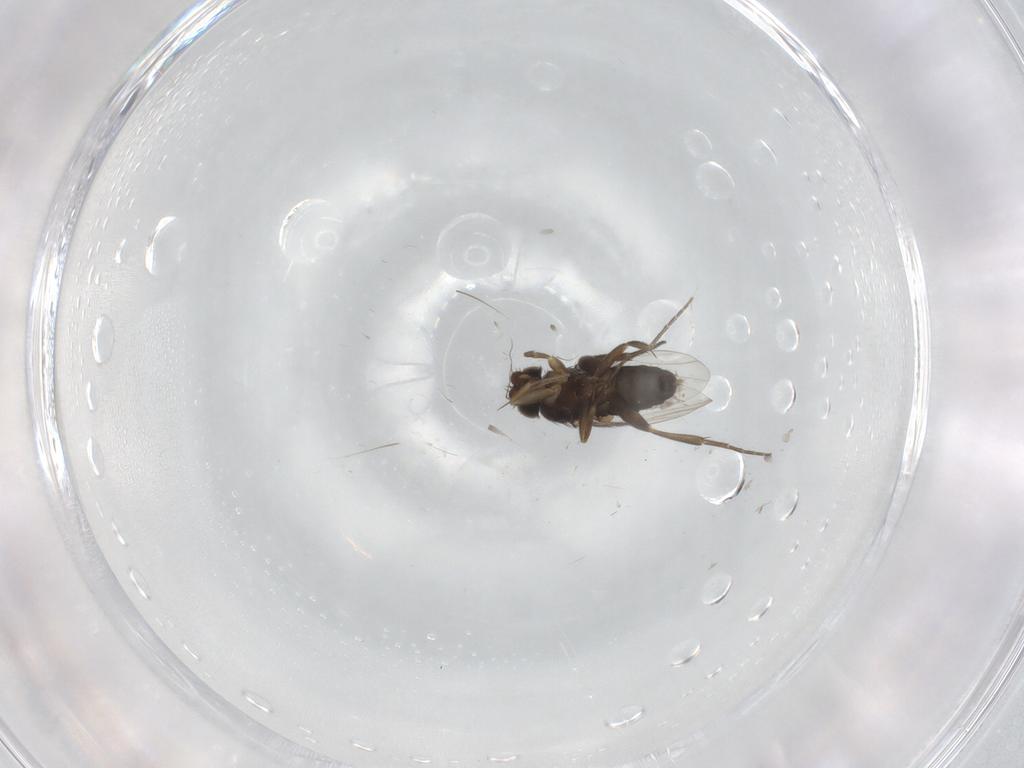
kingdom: Animalia
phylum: Arthropoda
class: Insecta
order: Diptera
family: Phoridae
